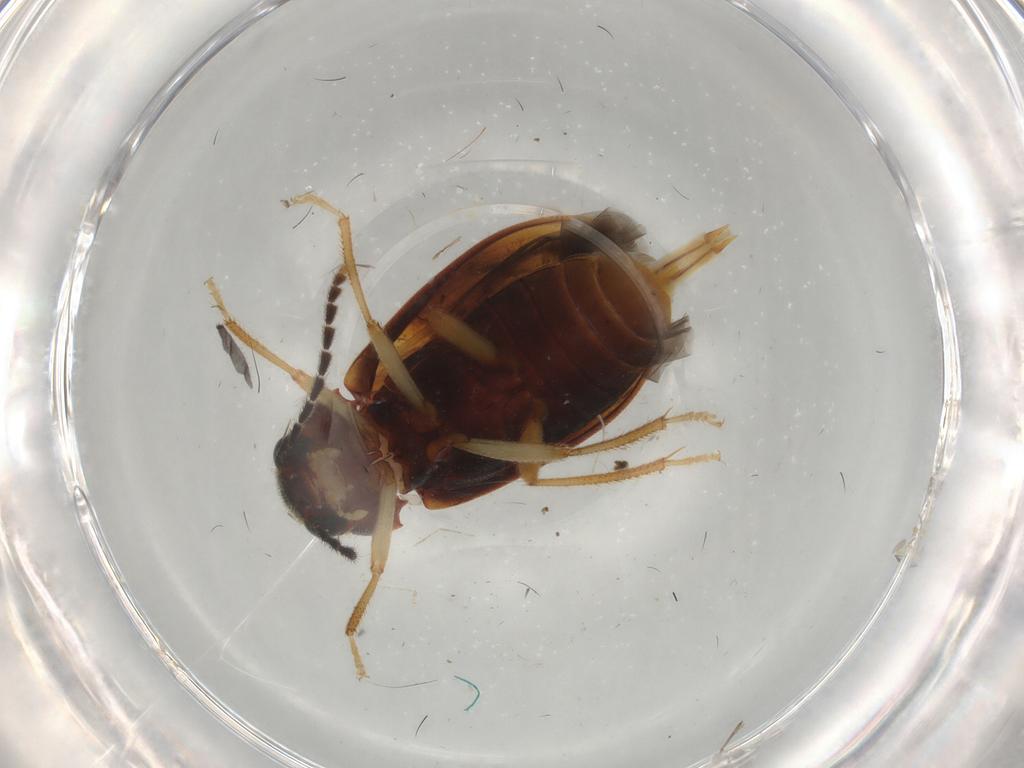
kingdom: Animalia
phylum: Arthropoda
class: Insecta
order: Coleoptera
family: Ptilodactylidae
